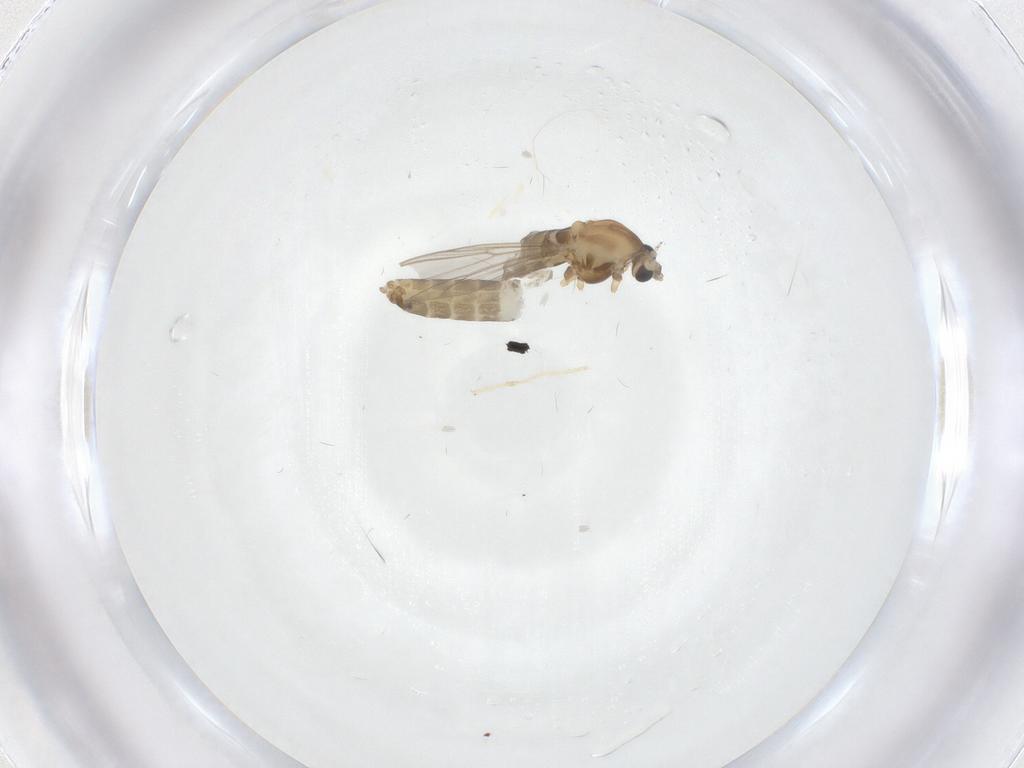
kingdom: Animalia
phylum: Arthropoda
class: Insecta
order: Diptera
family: Chironomidae
